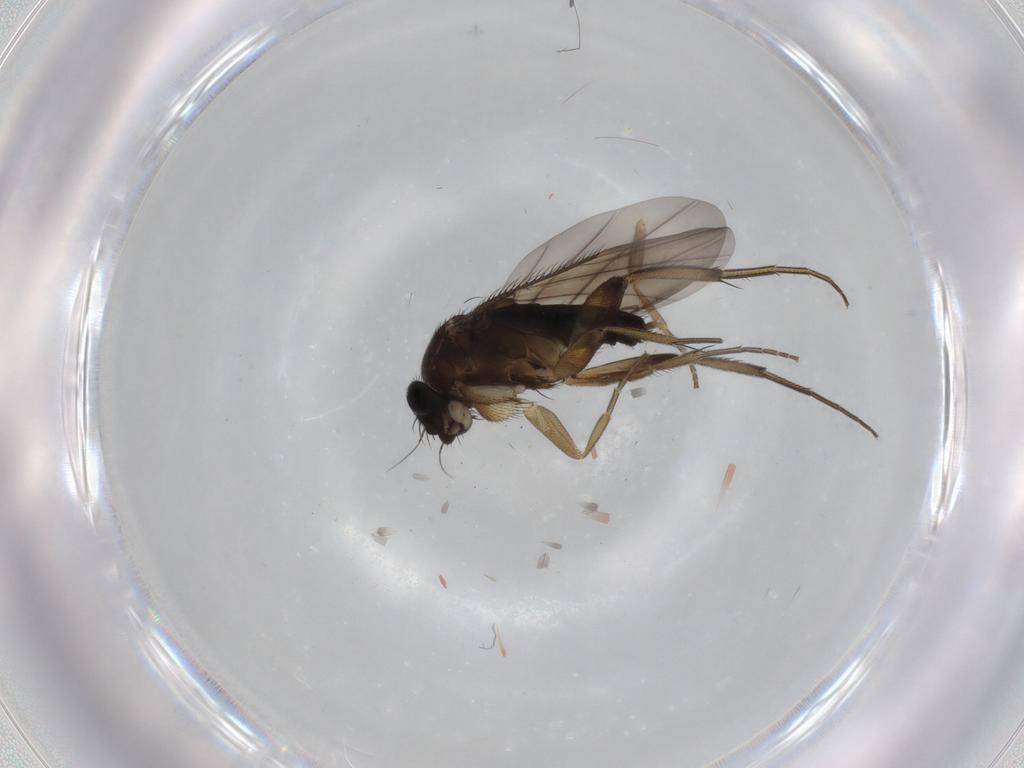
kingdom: Animalia
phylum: Arthropoda
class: Insecta
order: Diptera
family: Phoridae
